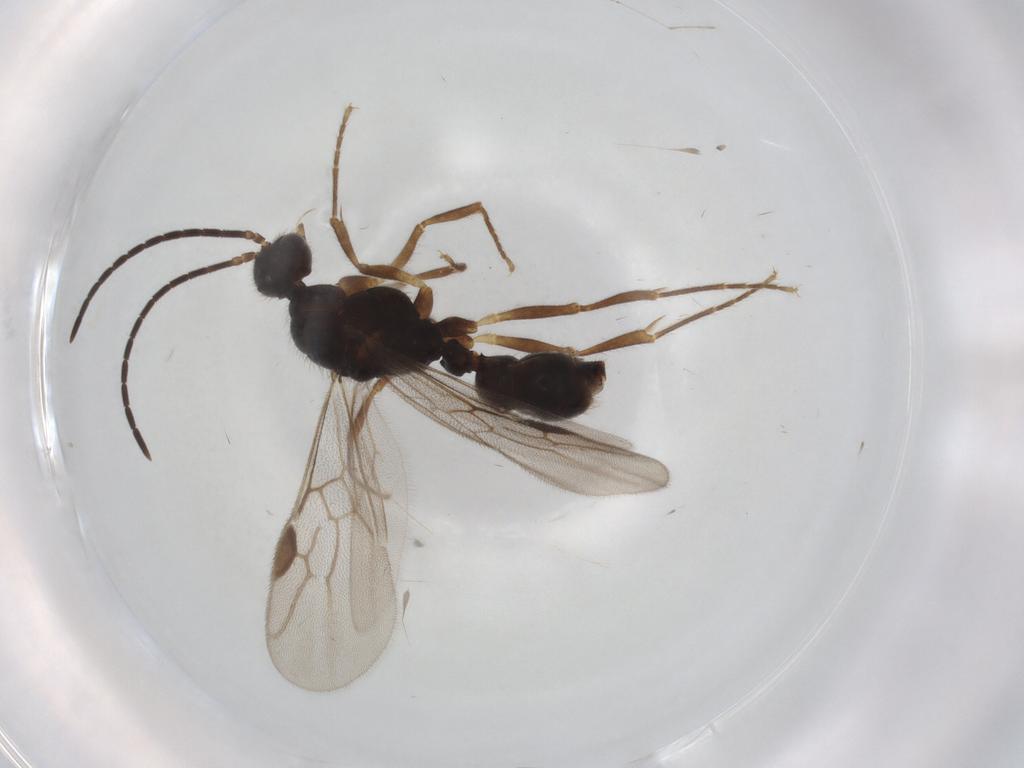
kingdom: Animalia
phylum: Arthropoda
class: Insecta
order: Hymenoptera
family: Formicidae
